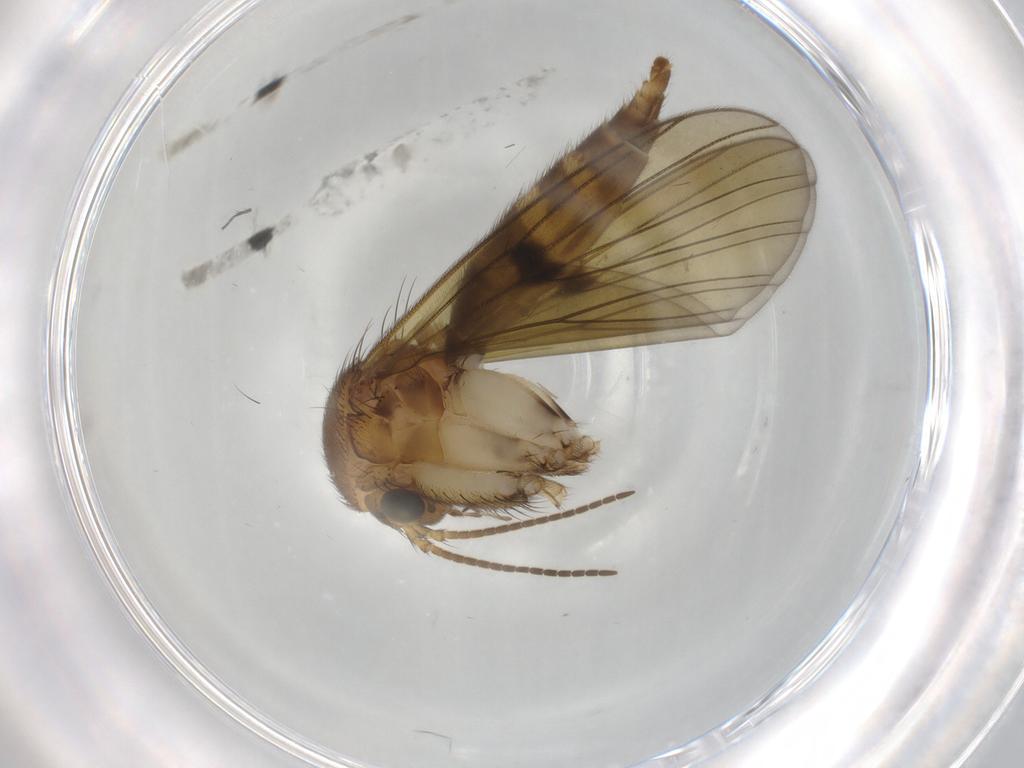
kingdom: Animalia
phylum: Arthropoda
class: Insecta
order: Diptera
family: Mycetophilidae
